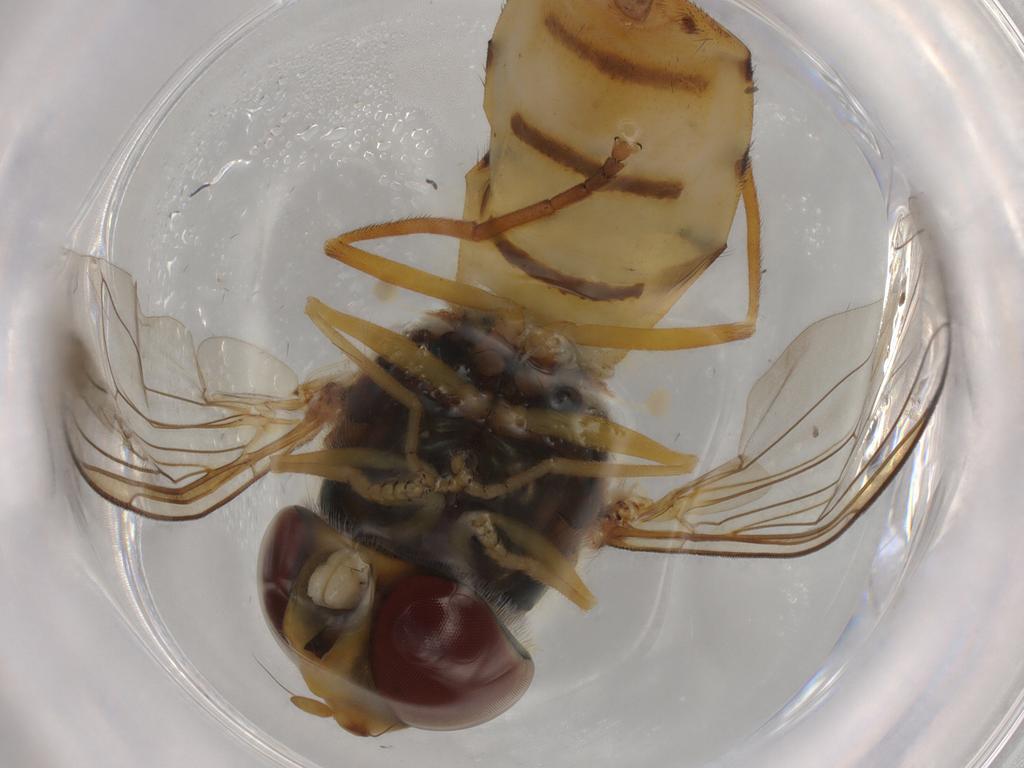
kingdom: Animalia
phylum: Arthropoda
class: Insecta
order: Diptera
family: Syrphidae
